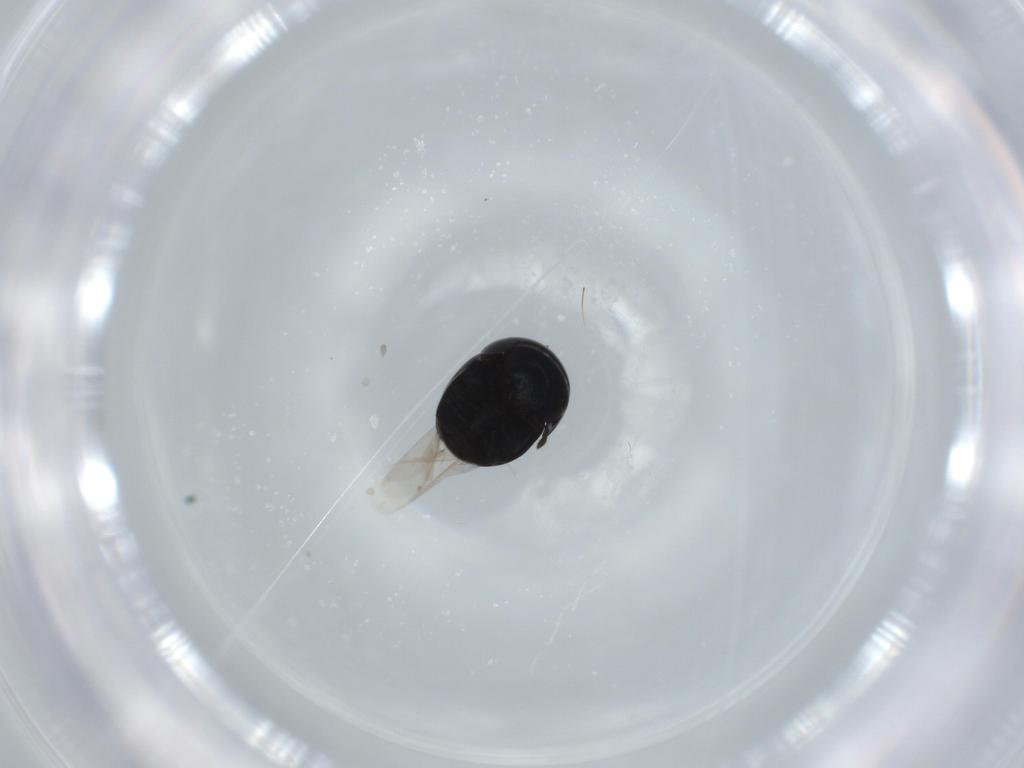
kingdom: Animalia
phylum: Arthropoda
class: Insecta
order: Coleoptera
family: Cybocephalidae
